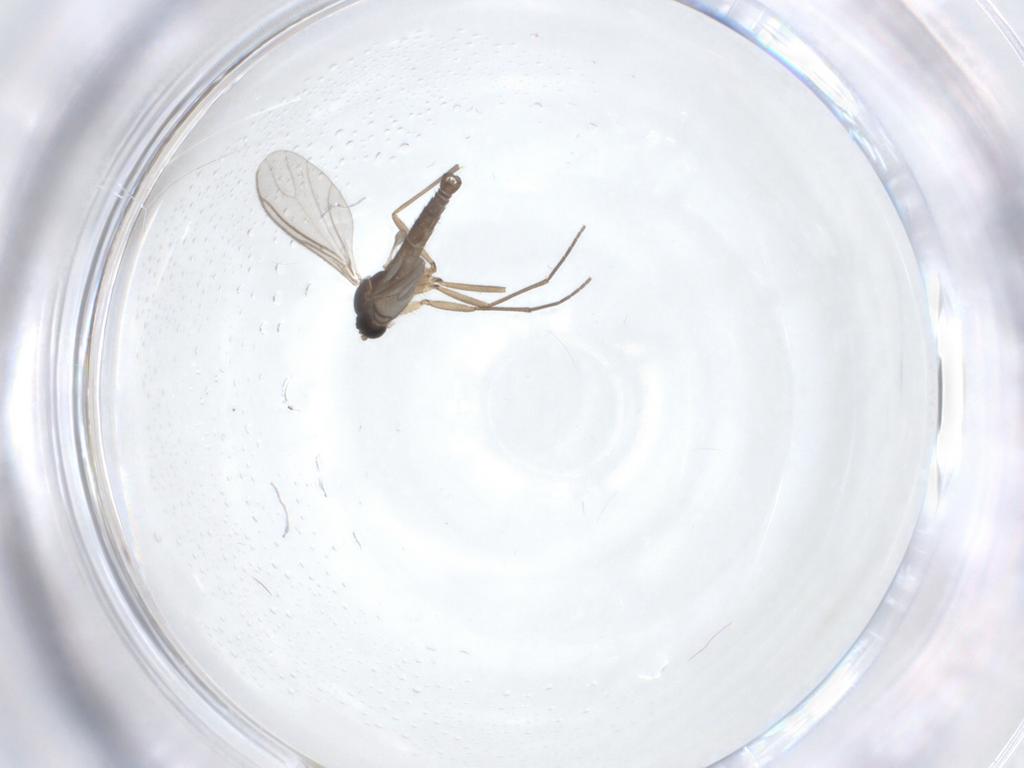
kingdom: Animalia
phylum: Arthropoda
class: Insecta
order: Diptera
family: Sciaridae
